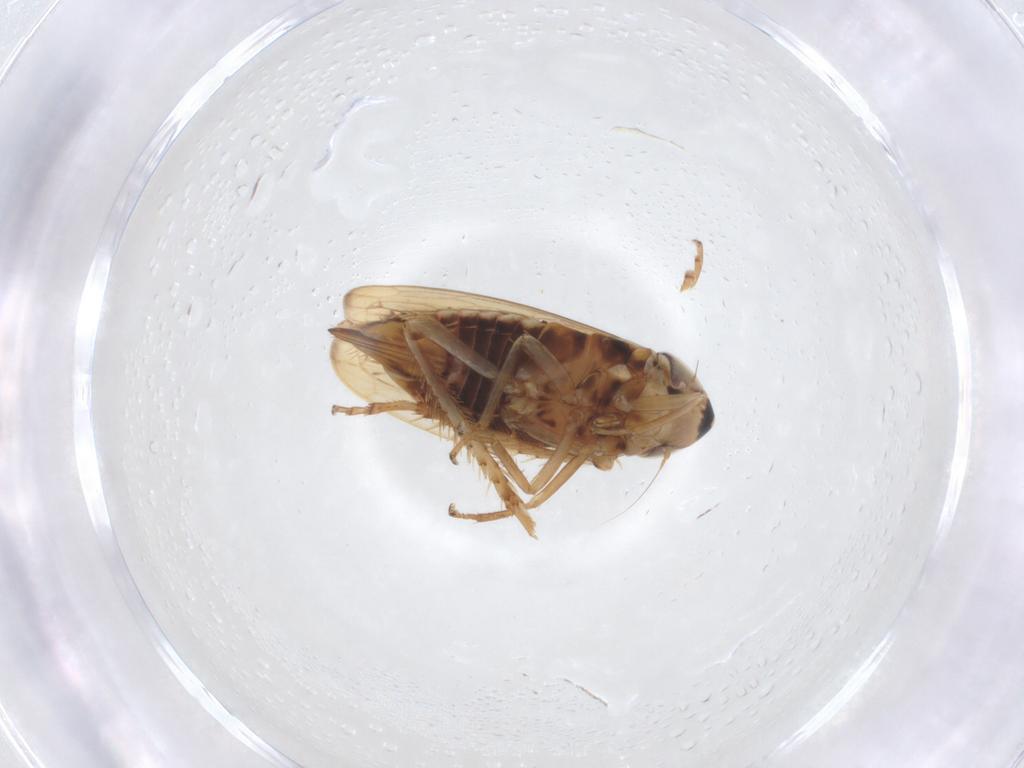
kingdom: Animalia
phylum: Arthropoda
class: Insecta
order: Hemiptera
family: Cicadellidae
